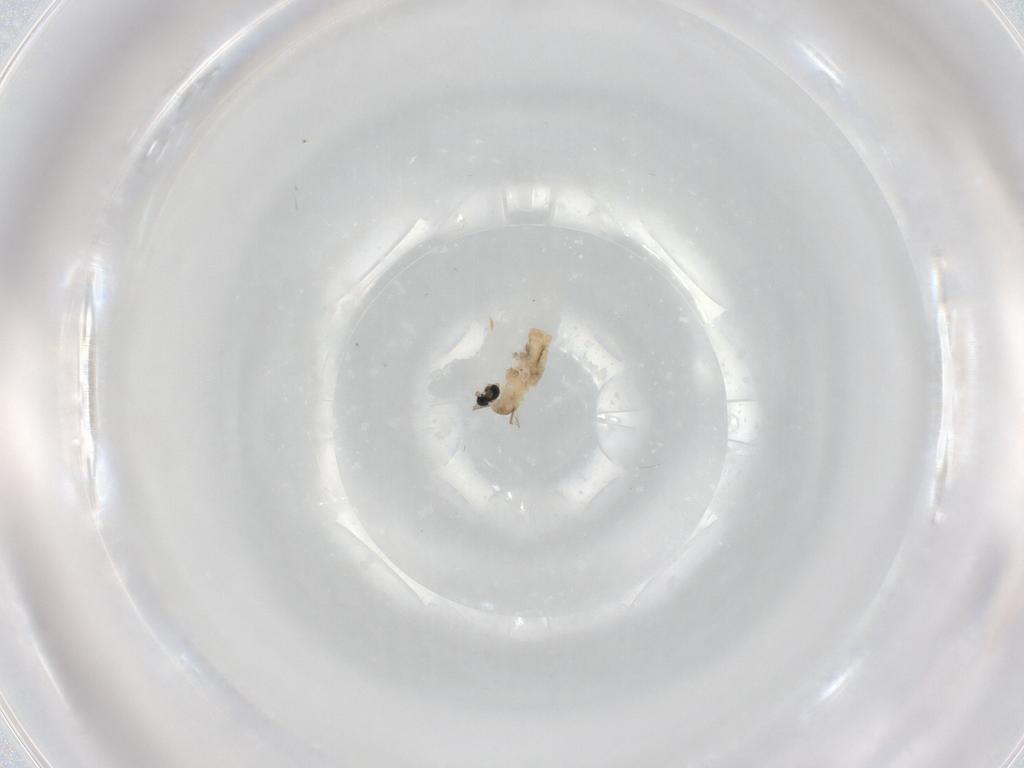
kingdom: Animalia
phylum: Arthropoda
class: Insecta
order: Diptera
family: Cecidomyiidae
